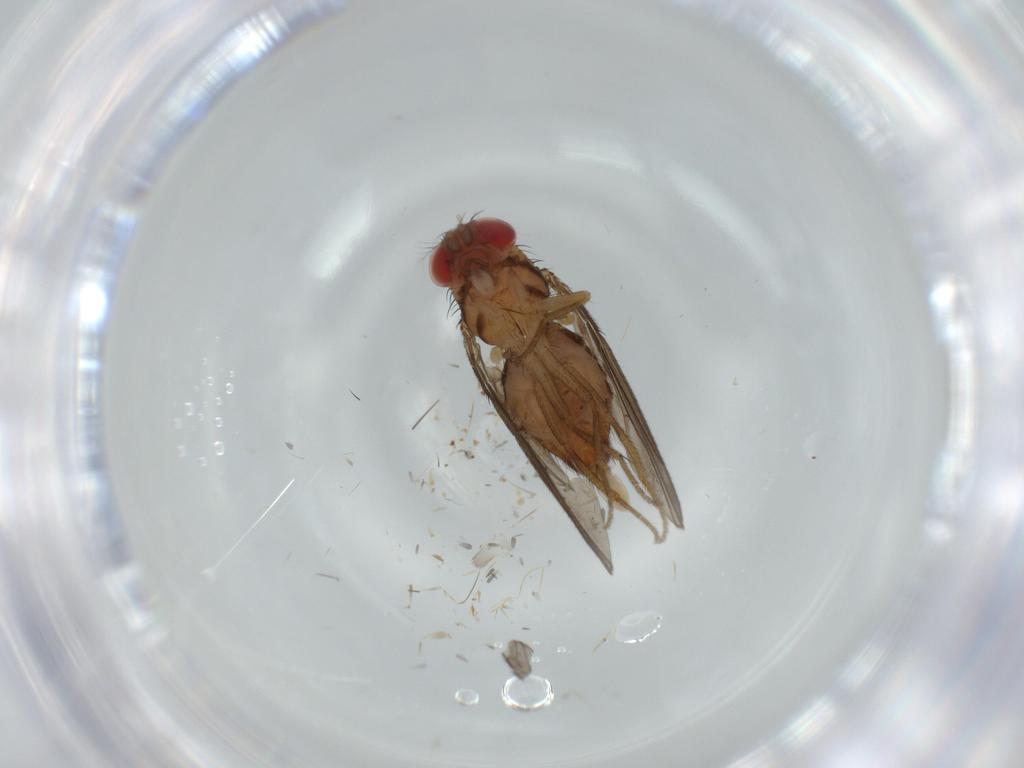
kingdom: Animalia
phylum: Arthropoda
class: Insecta
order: Diptera
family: Drosophilidae
